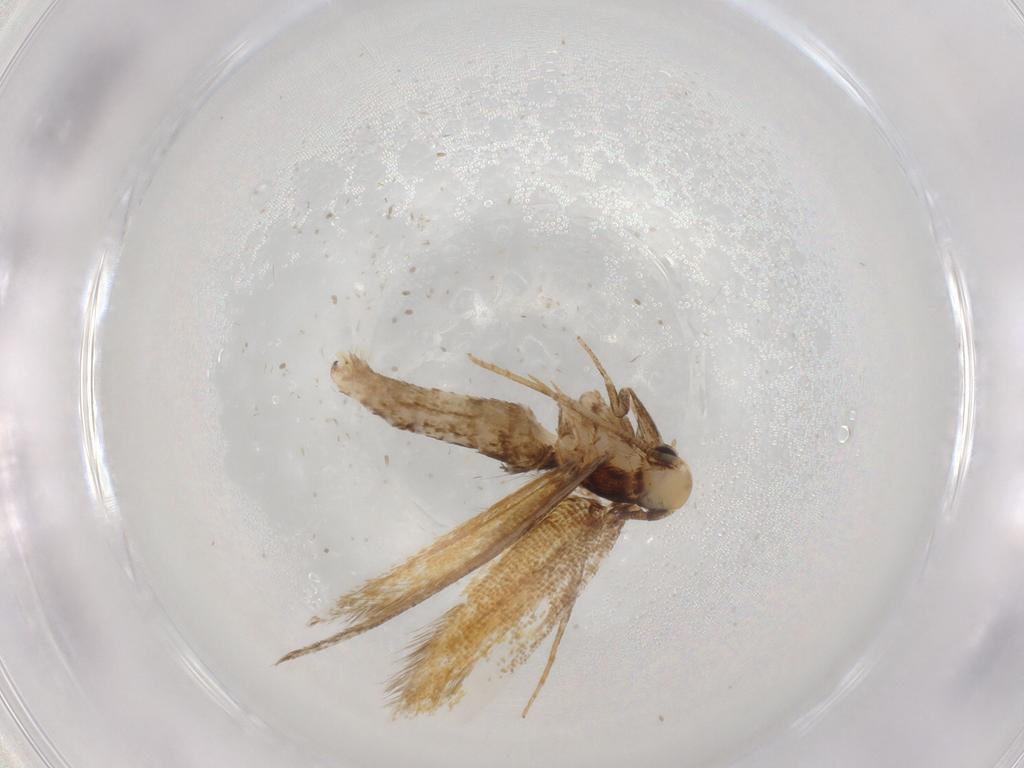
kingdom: Animalia
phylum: Arthropoda
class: Insecta
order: Lepidoptera
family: Tineidae
